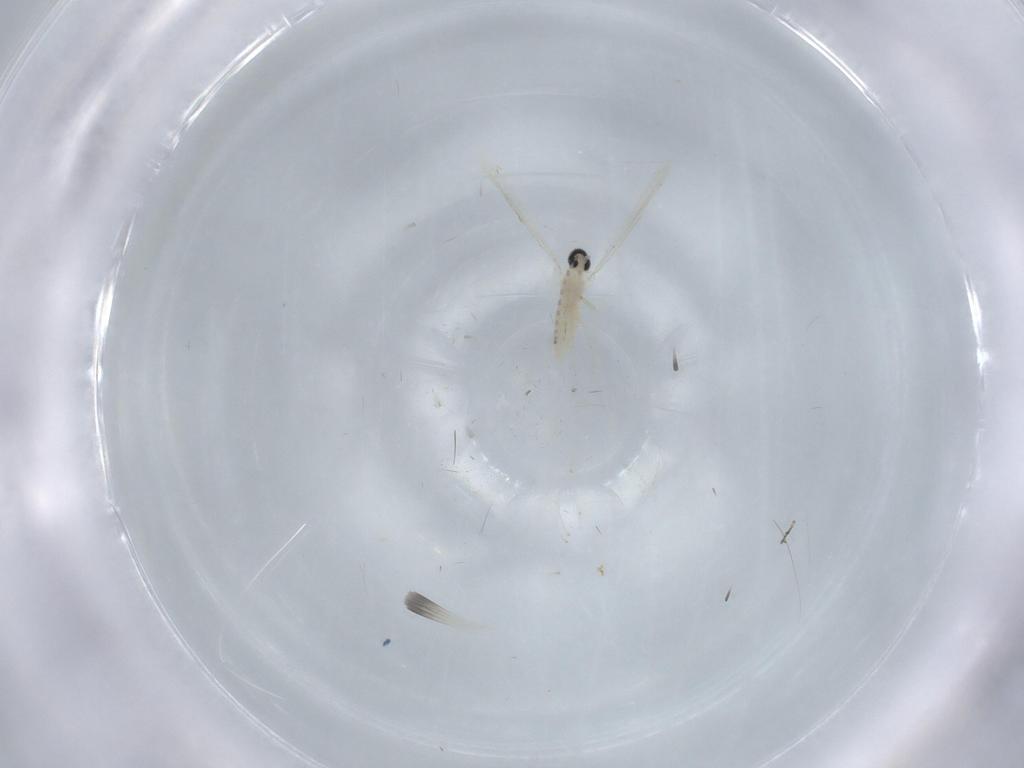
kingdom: Animalia
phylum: Arthropoda
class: Insecta
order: Diptera
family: Cecidomyiidae
